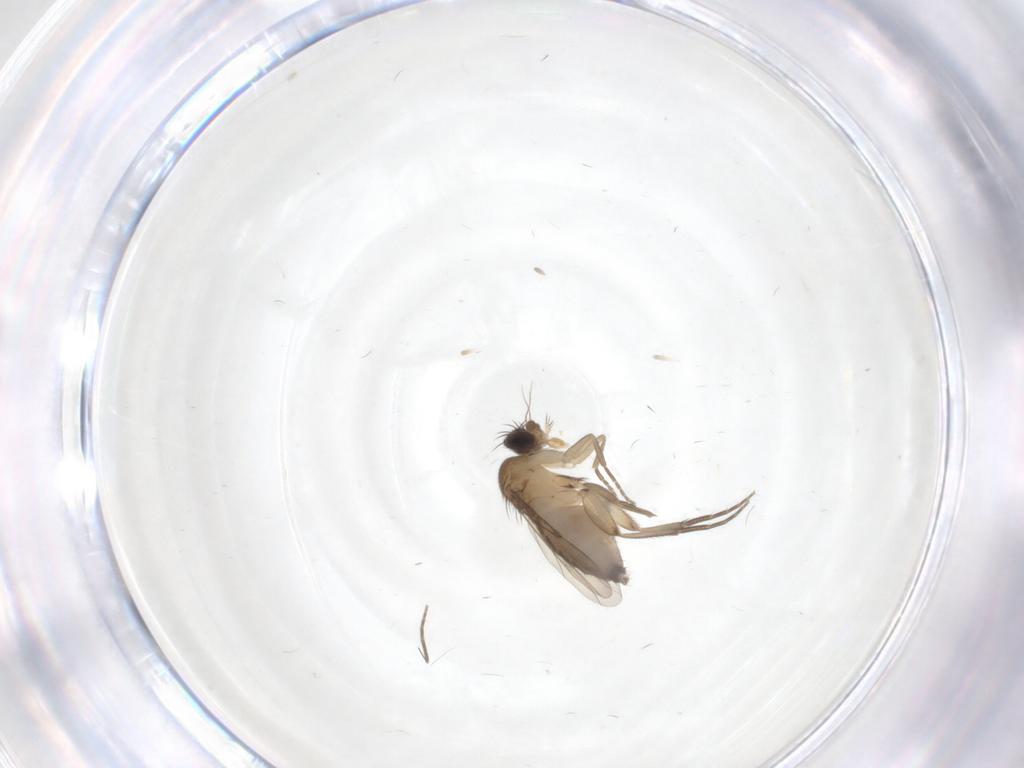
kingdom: Animalia
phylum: Arthropoda
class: Insecta
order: Diptera
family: Phoridae
